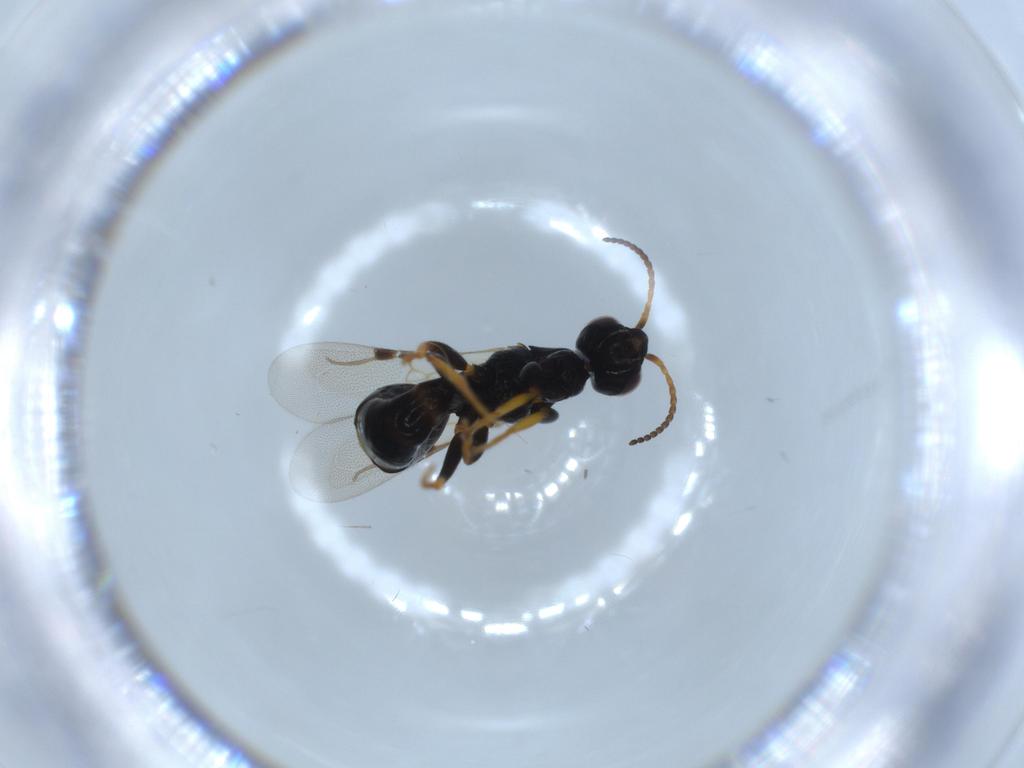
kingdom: Animalia
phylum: Arthropoda
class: Insecta
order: Hymenoptera
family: Bethylidae
